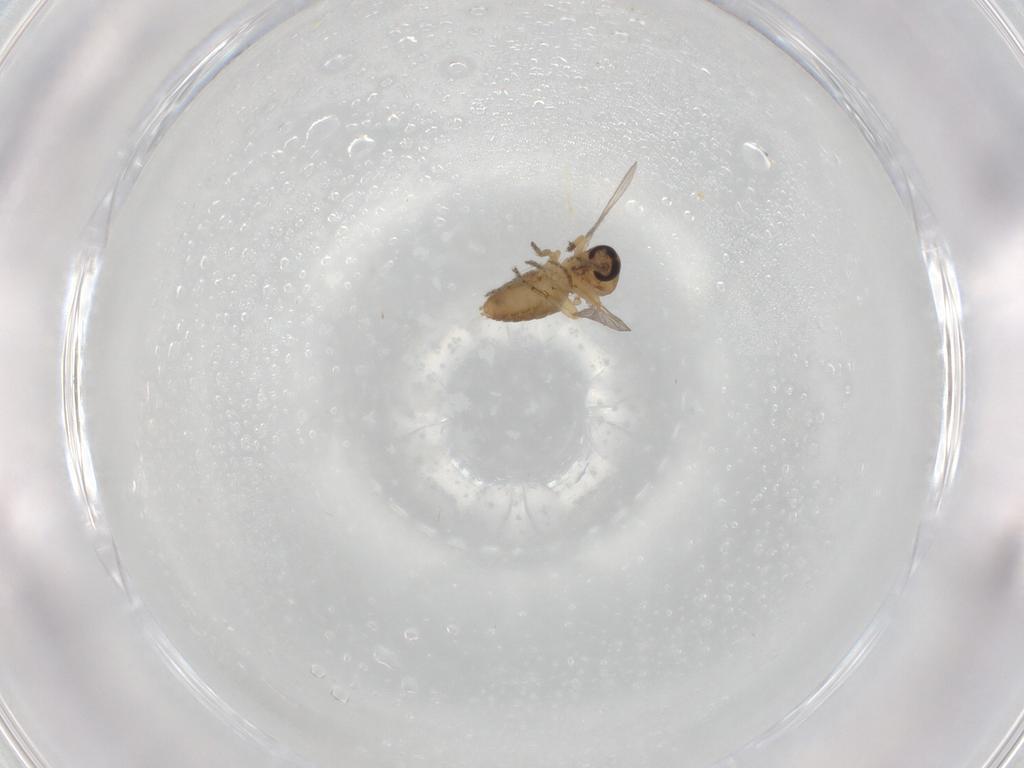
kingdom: Animalia
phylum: Arthropoda
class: Insecta
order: Diptera
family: Ceratopogonidae
